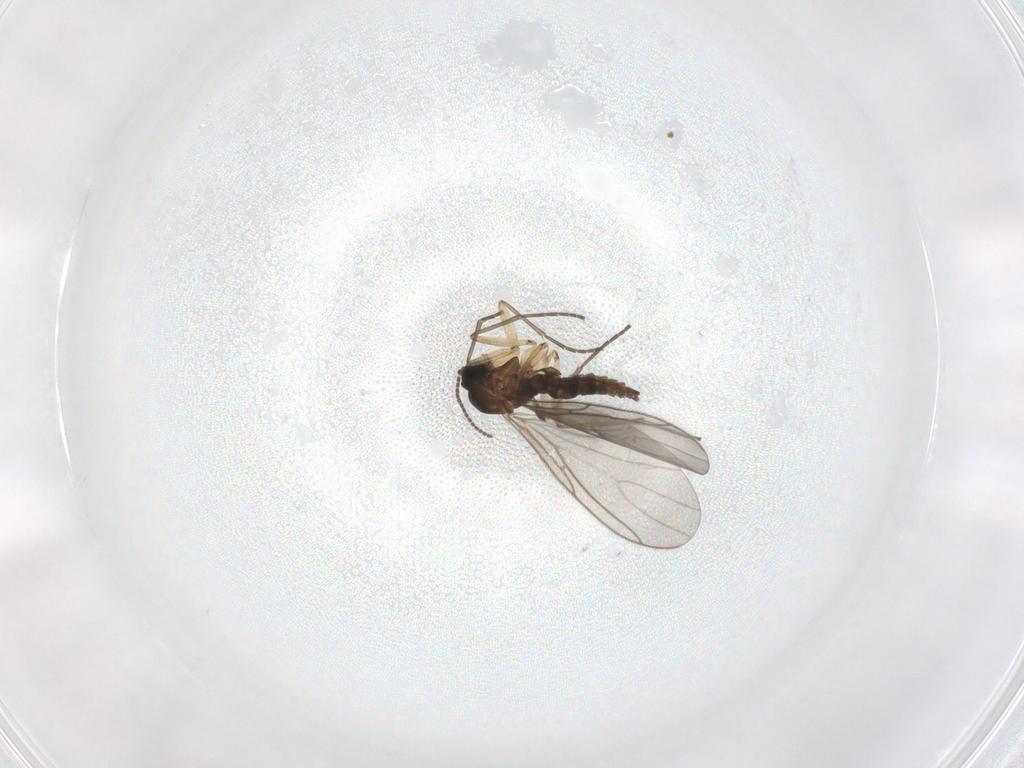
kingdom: Animalia
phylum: Arthropoda
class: Insecta
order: Diptera
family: Sciaridae
